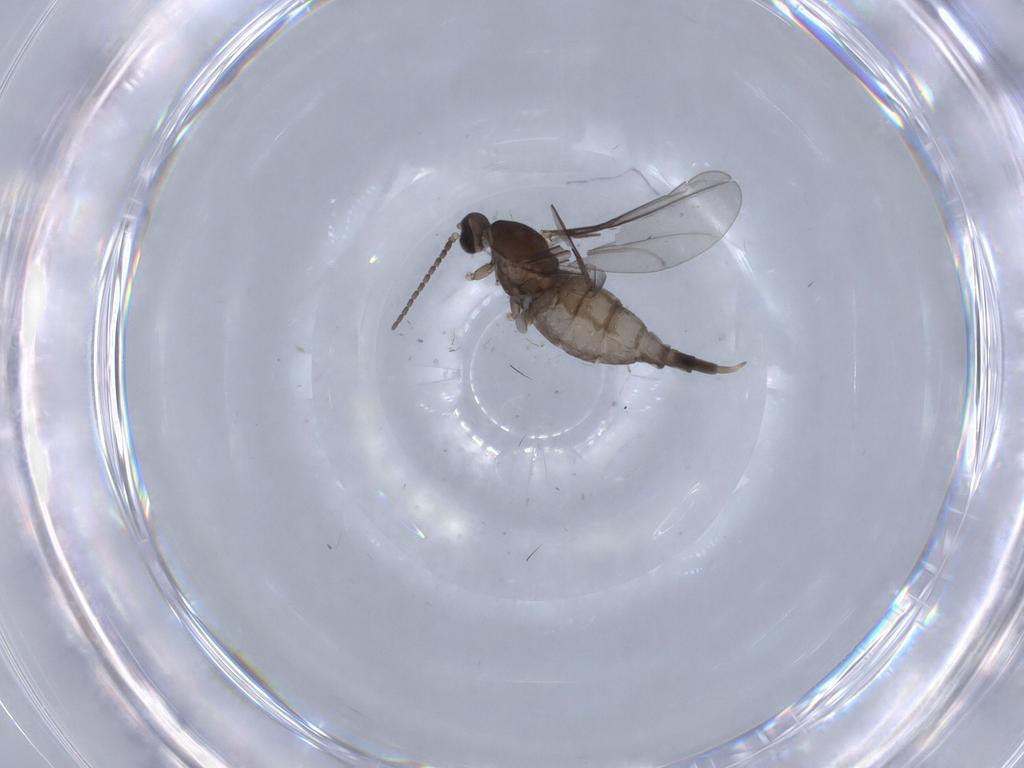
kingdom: Animalia
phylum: Arthropoda
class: Insecta
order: Diptera
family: Cecidomyiidae
